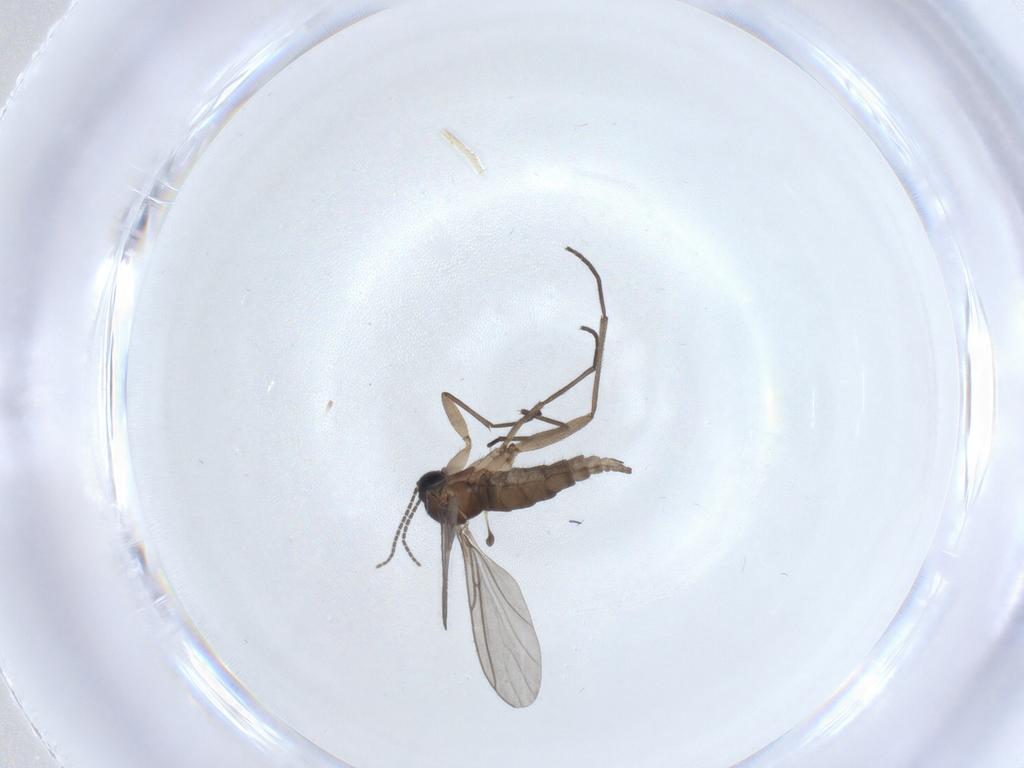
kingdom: Animalia
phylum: Arthropoda
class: Insecta
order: Diptera
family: Sciaridae
